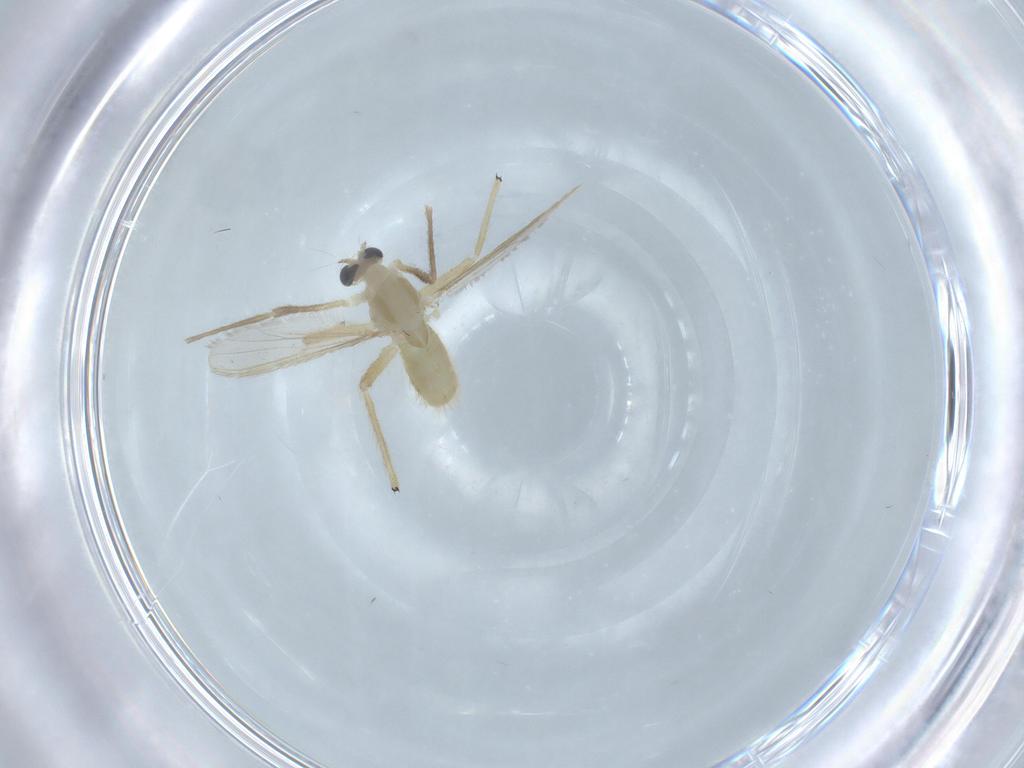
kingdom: Animalia
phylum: Arthropoda
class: Insecta
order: Diptera
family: Chironomidae
